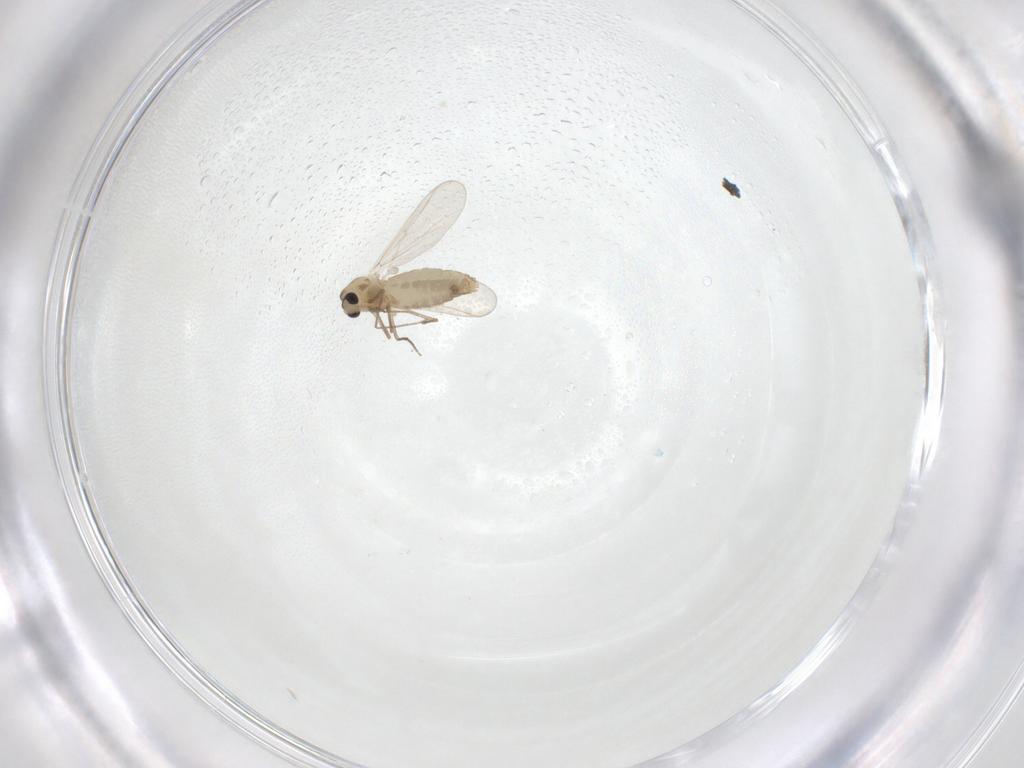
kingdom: Animalia
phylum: Arthropoda
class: Insecta
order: Diptera
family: Chironomidae
